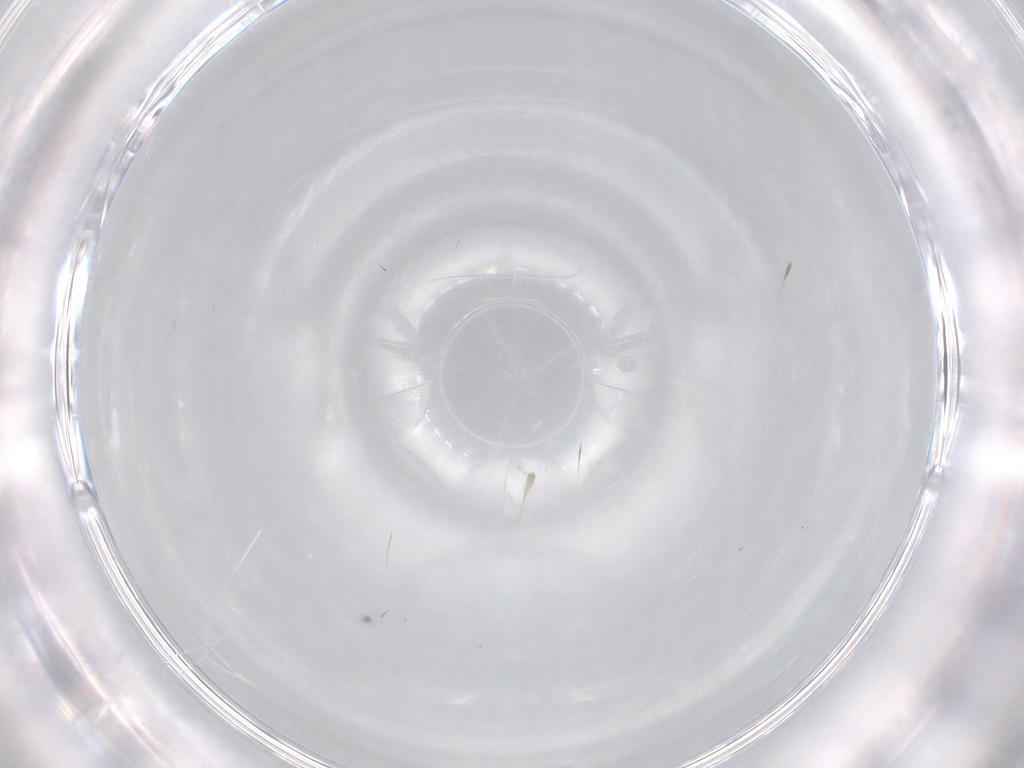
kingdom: Animalia
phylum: Arthropoda
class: Insecta
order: Diptera
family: Ceratopogonidae
